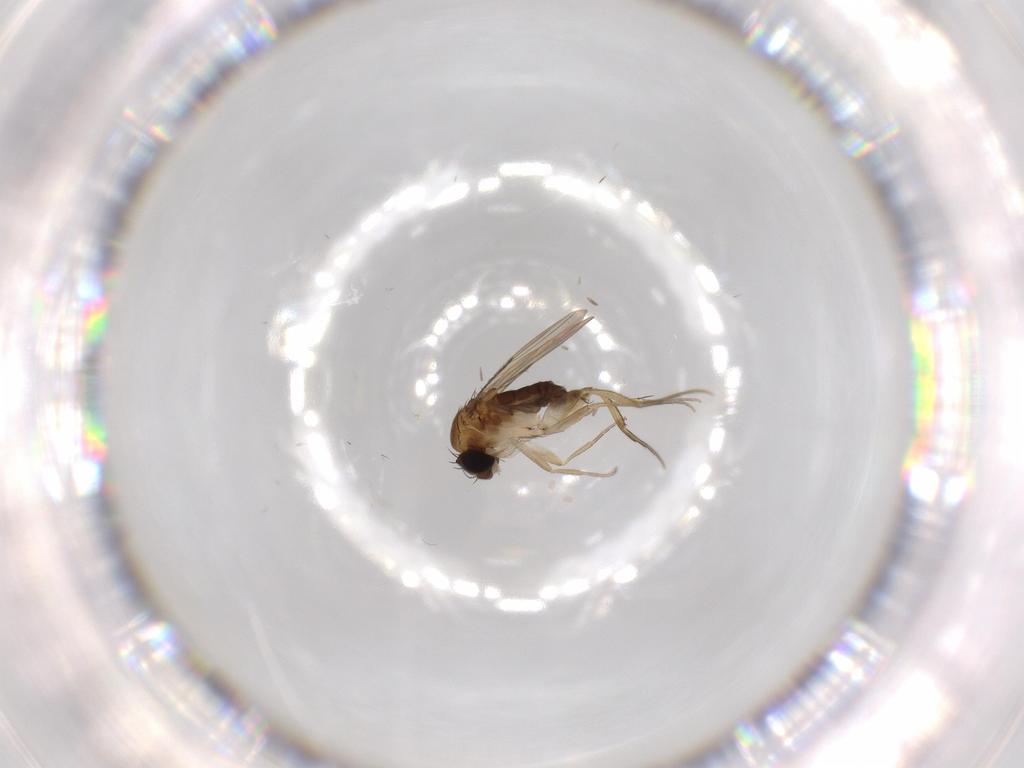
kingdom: Animalia
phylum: Arthropoda
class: Insecta
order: Diptera
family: Phoridae
